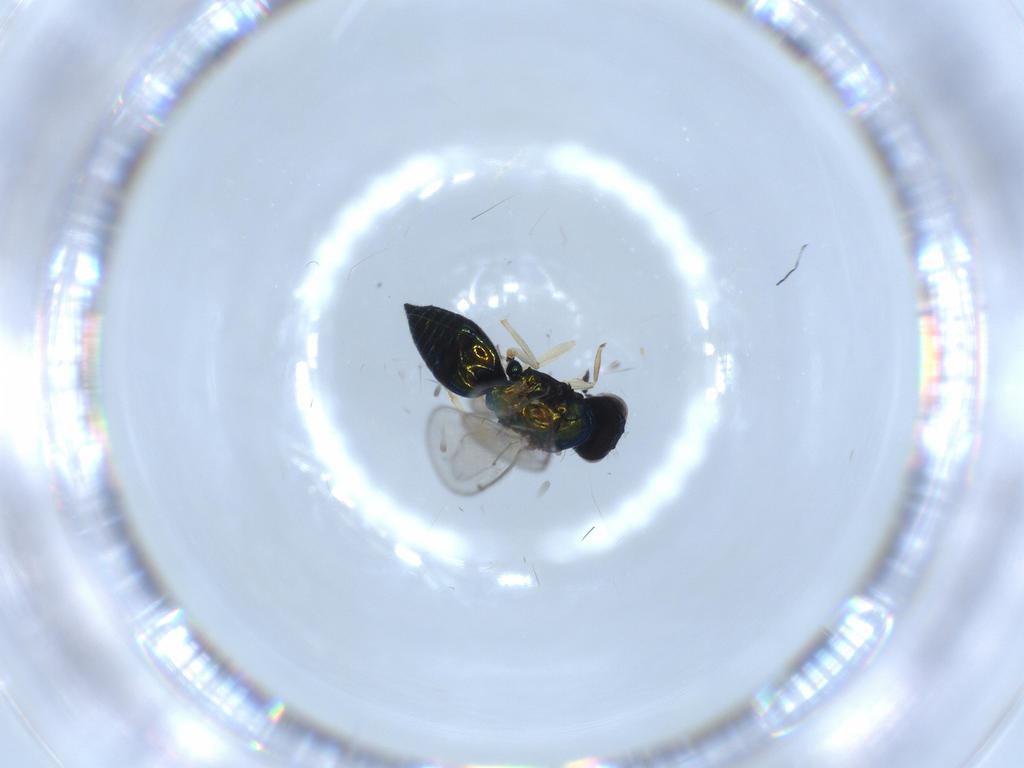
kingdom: Animalia
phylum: Arthropoda
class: Insecta
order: Hymenoptera
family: Eulophidae
